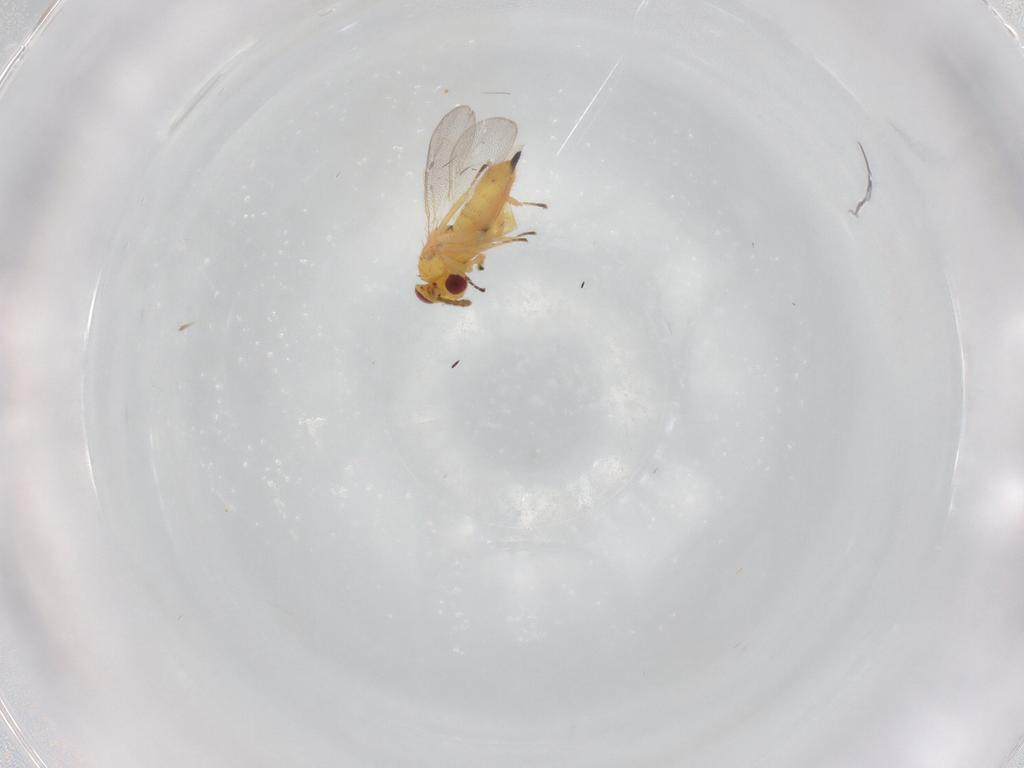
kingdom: Animalia
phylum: Arthropoda
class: Insecta
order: Hymenoptera
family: Eulophidae
